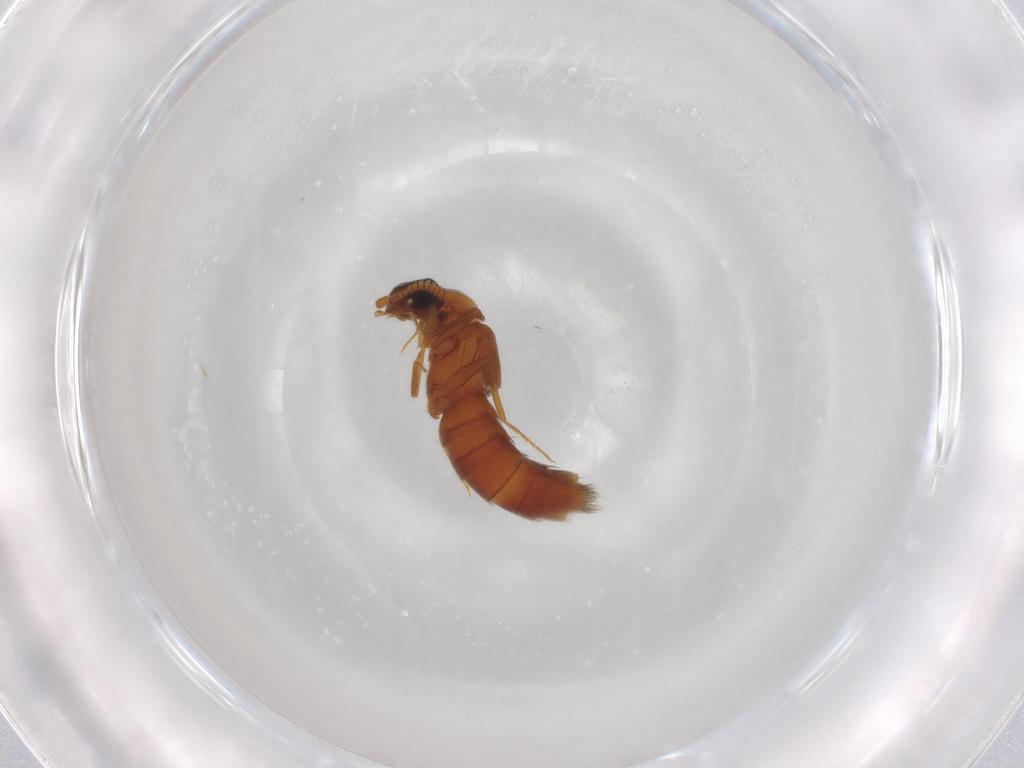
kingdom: Animalia
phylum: Arthropoda
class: Insecta
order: Coleoptera
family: Staphylinidae
